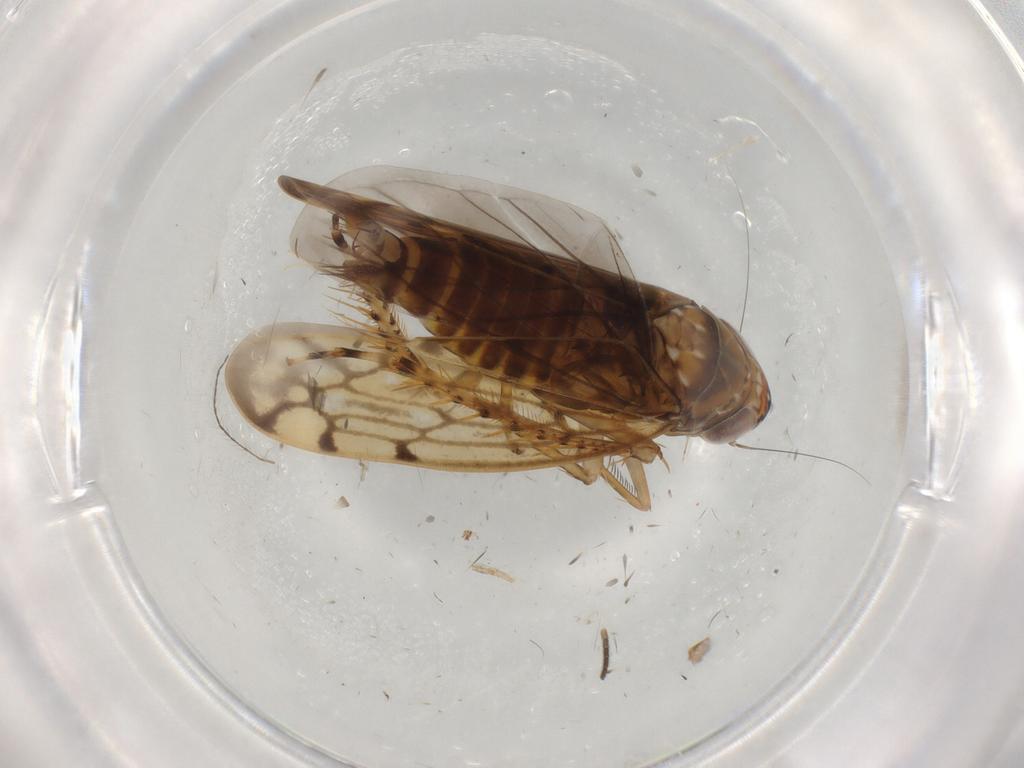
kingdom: Animalia
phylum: Arthropoda
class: Insecta
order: Hemiptera
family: Cicadellidae
